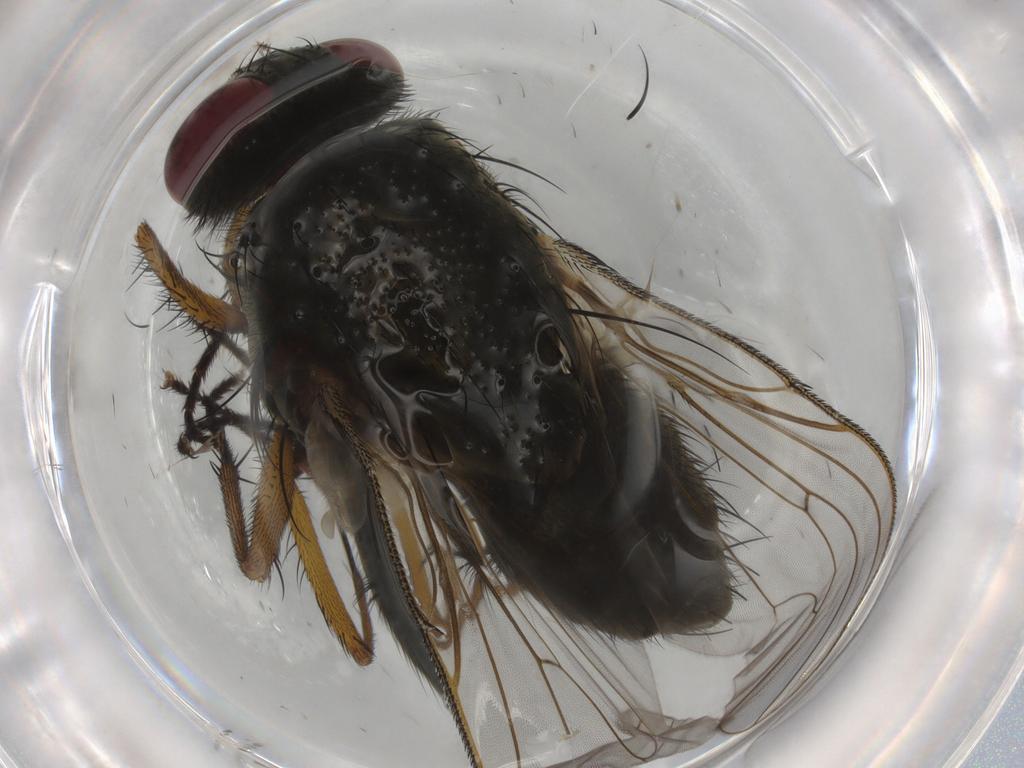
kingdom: Animalia
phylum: Arthropoda
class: Insecta
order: Diptera
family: Muscidae
